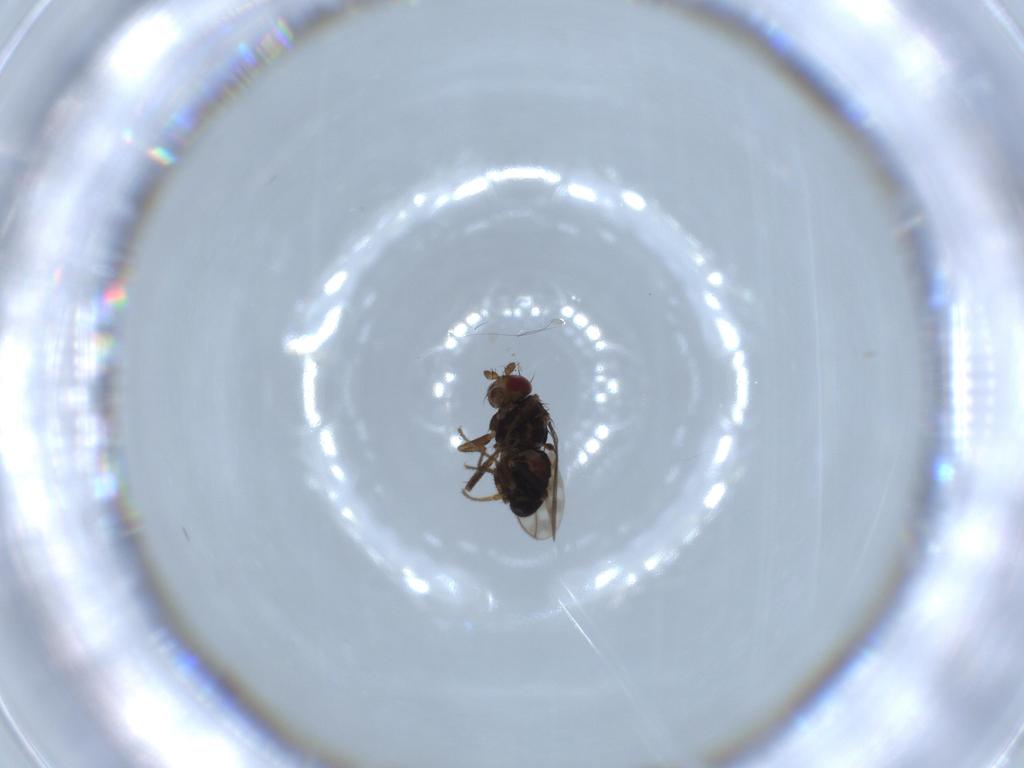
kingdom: Animalia
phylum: Arthropoda
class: Insecta
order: Diptera
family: Sphaeroceridae
